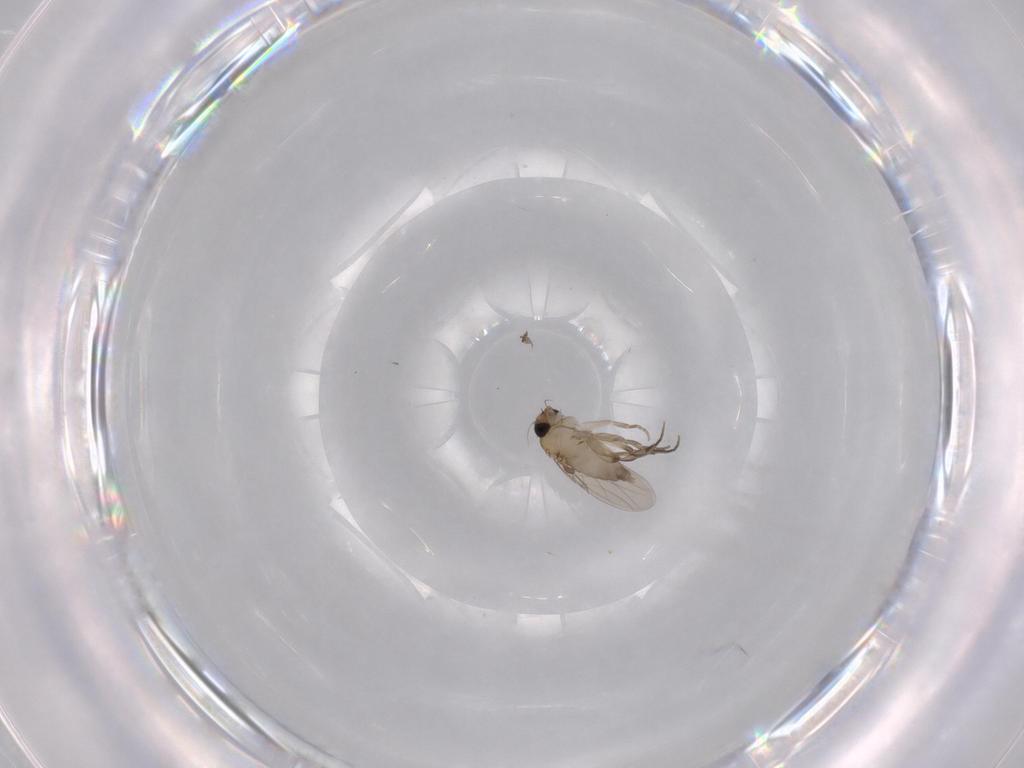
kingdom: Animalia
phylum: Arthropoda
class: Insecta
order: Diptera
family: Phoridae
